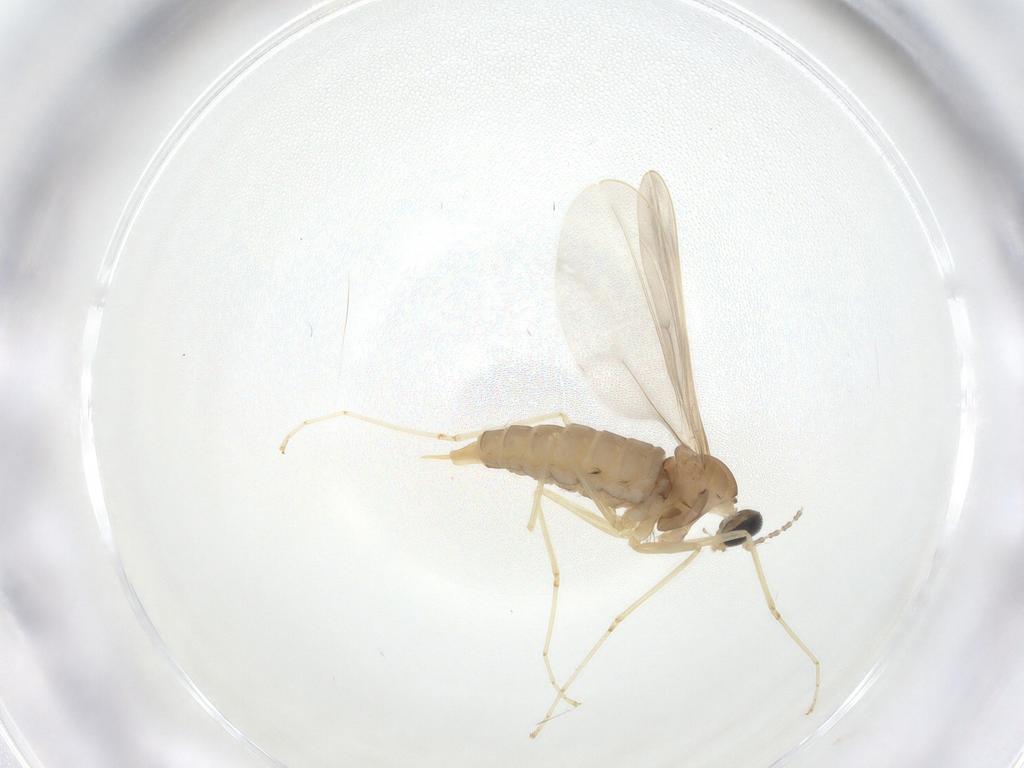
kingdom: Animalia
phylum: Arthropoda
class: Insecta
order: Diptera
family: Cecidomyiidae
